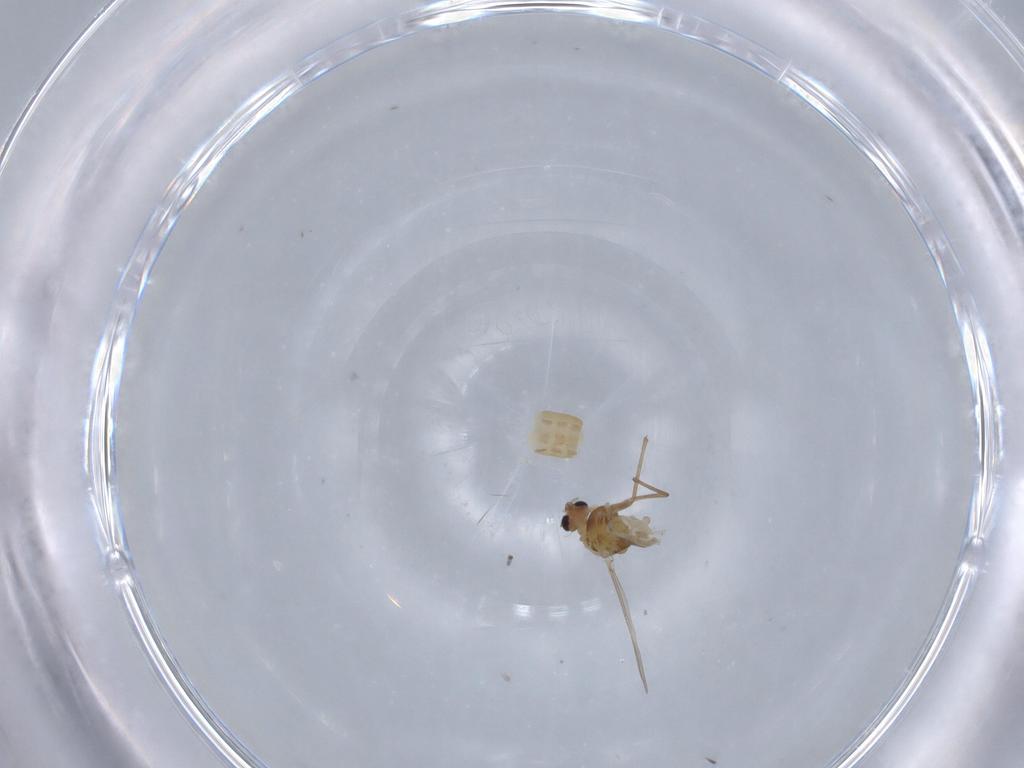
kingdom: Animalia
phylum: Arthropoda
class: Insecta
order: Diptera
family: Chironomidae
